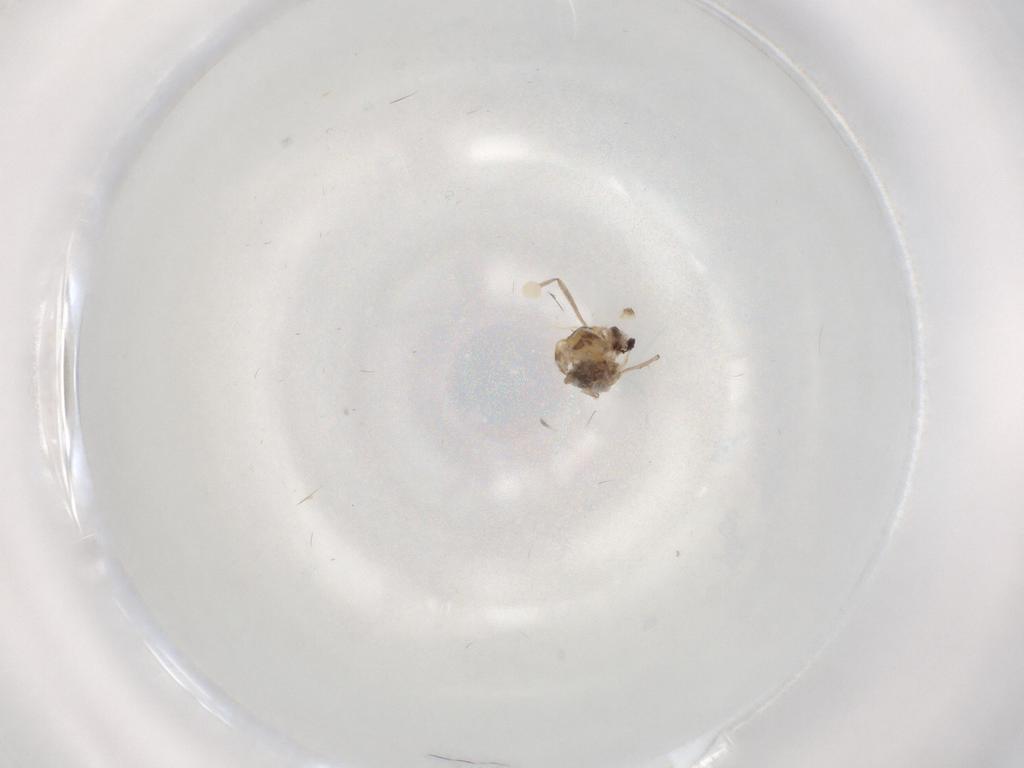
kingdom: Animalia
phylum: Arthropoda
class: Insecta
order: Diptera
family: Chironomidae
